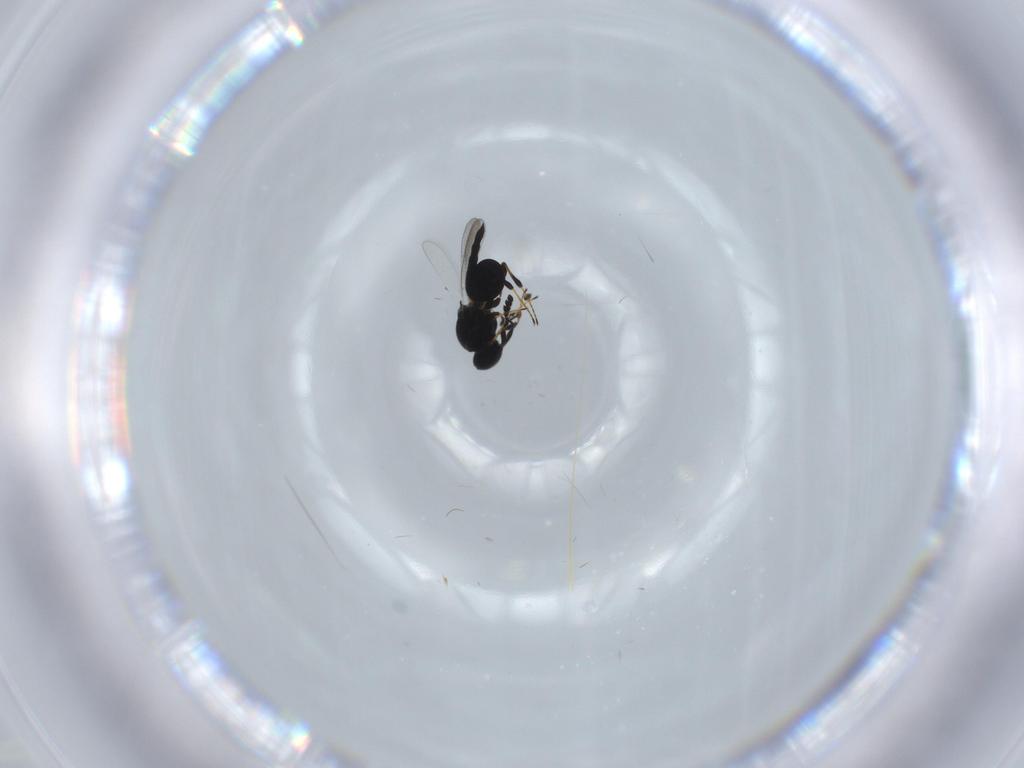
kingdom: Animalia
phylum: Arthropoda
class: Insecta
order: Hymenoptera
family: Platygastridae
